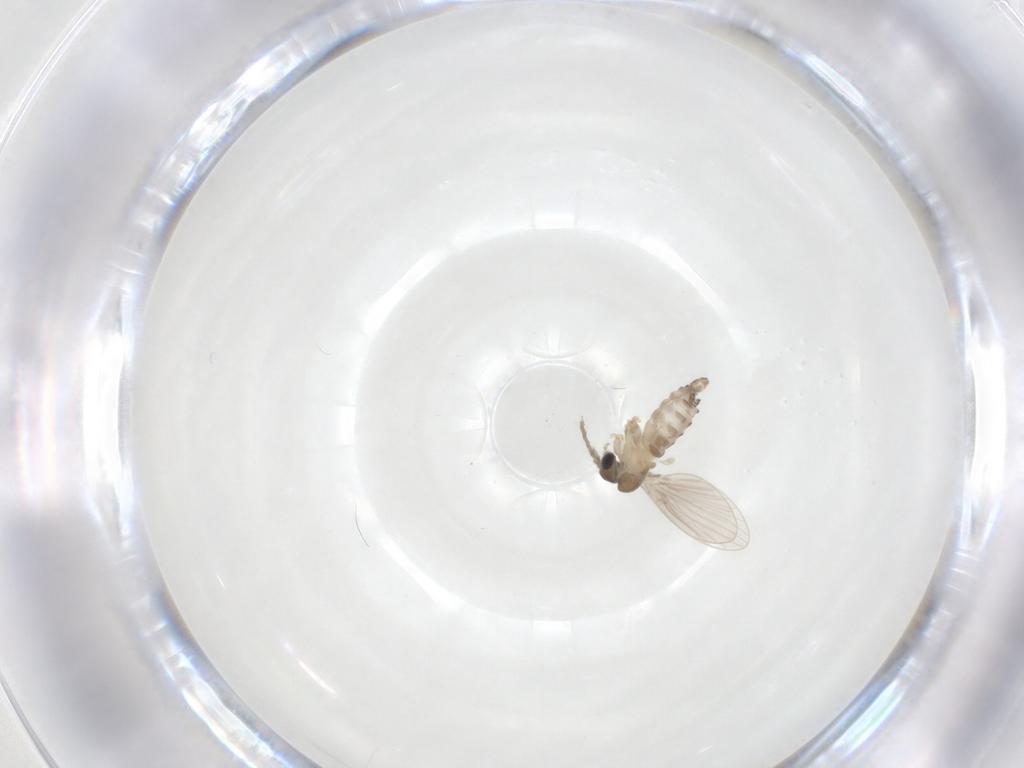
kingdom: Animalia
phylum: Arthropoda
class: Insecta
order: Diptera
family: Psychodidae
